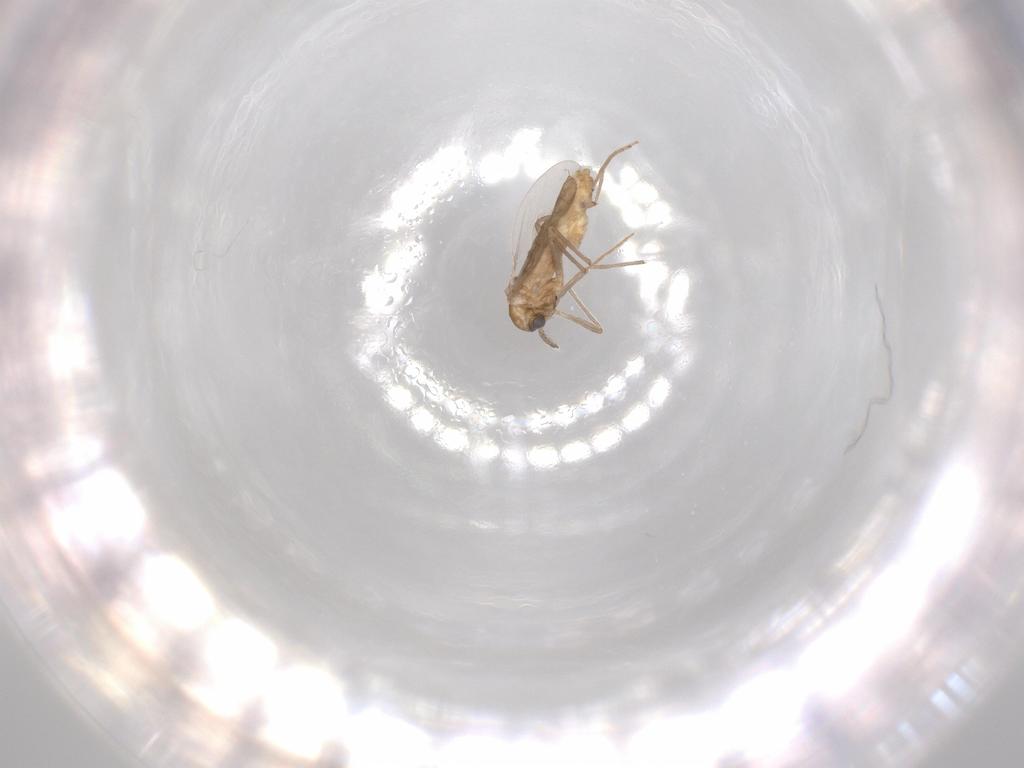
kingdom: Animalia
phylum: Arthropoda
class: Insecta
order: Diptera
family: Chironomidae
